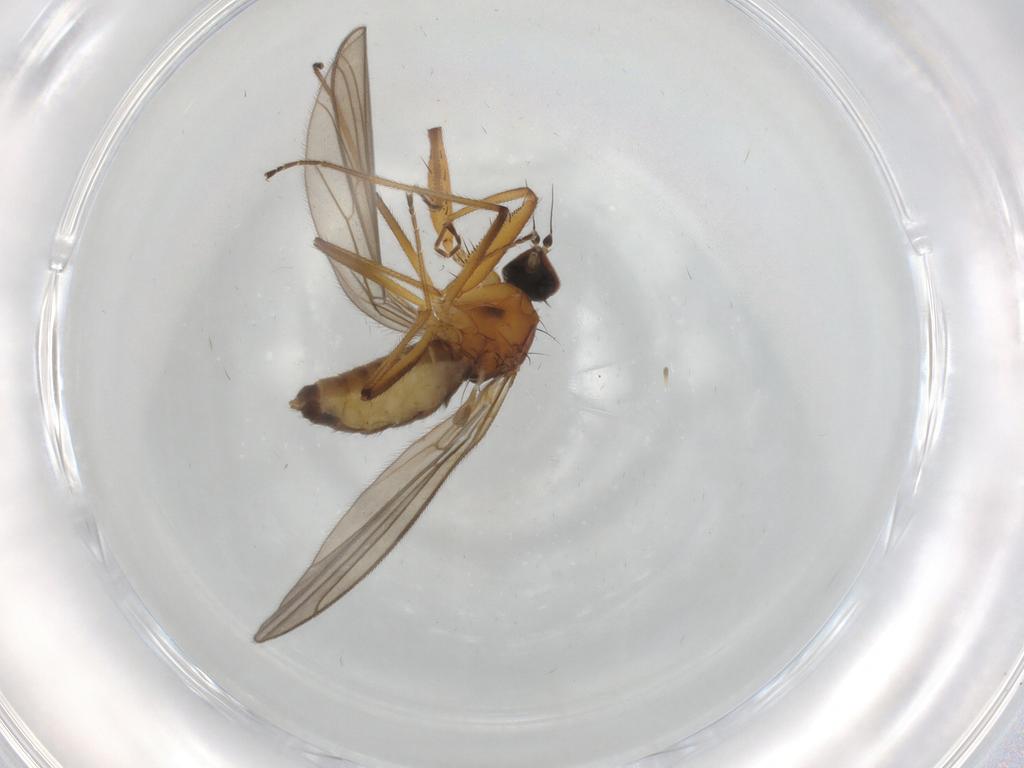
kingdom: Animalia
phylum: Arthropoda
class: Insecta
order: Diptera
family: Empididae
